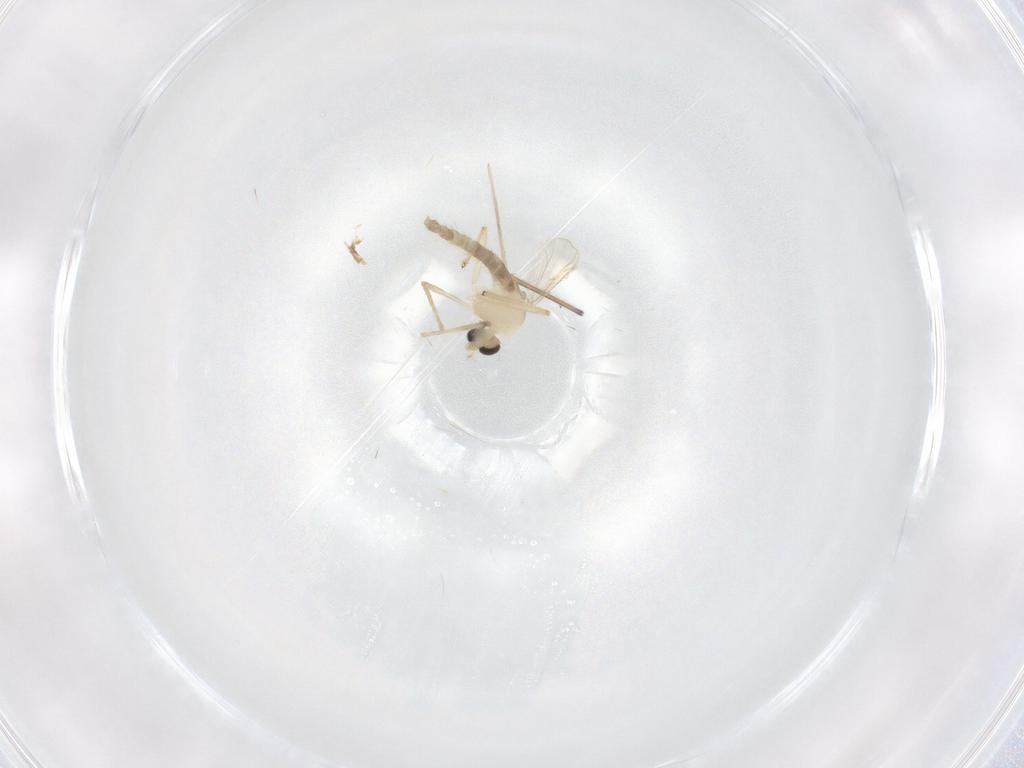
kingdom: Animalia
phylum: Arthropoda
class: Insecta
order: Diptera
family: Chironomidae
